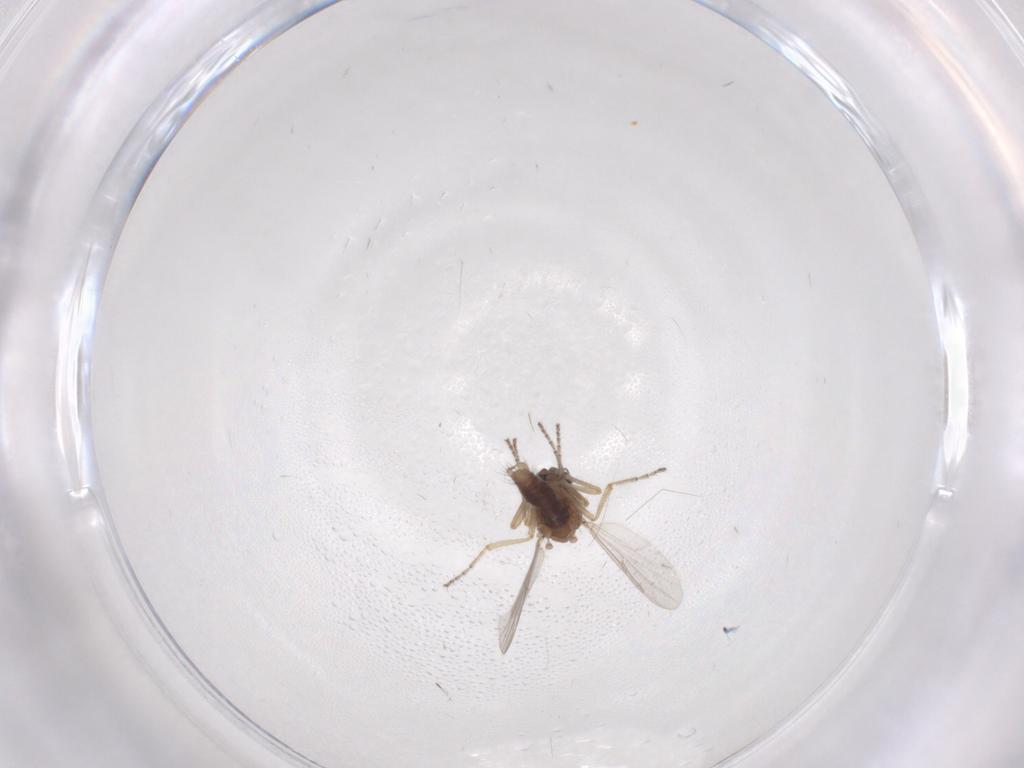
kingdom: Animalia
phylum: Arthropoda
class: Insecta
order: Diptera
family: Ceratopogonidae
